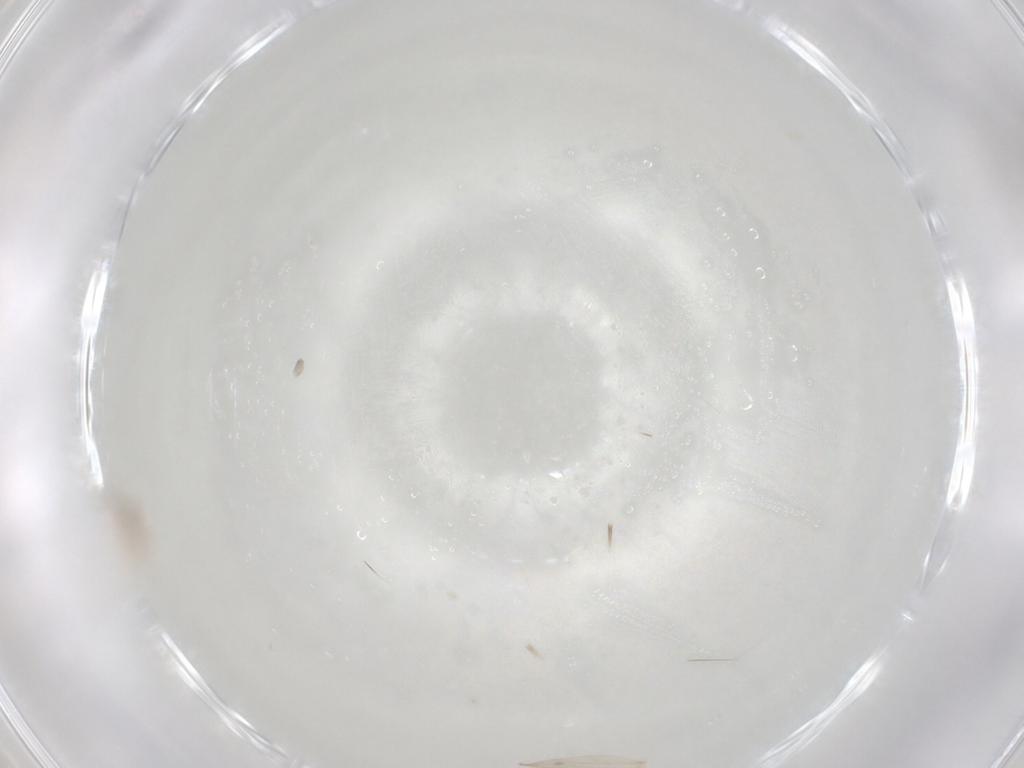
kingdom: Animalia
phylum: Arthropoda
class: Insecta
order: Diptera
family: Cecidomyiidae
